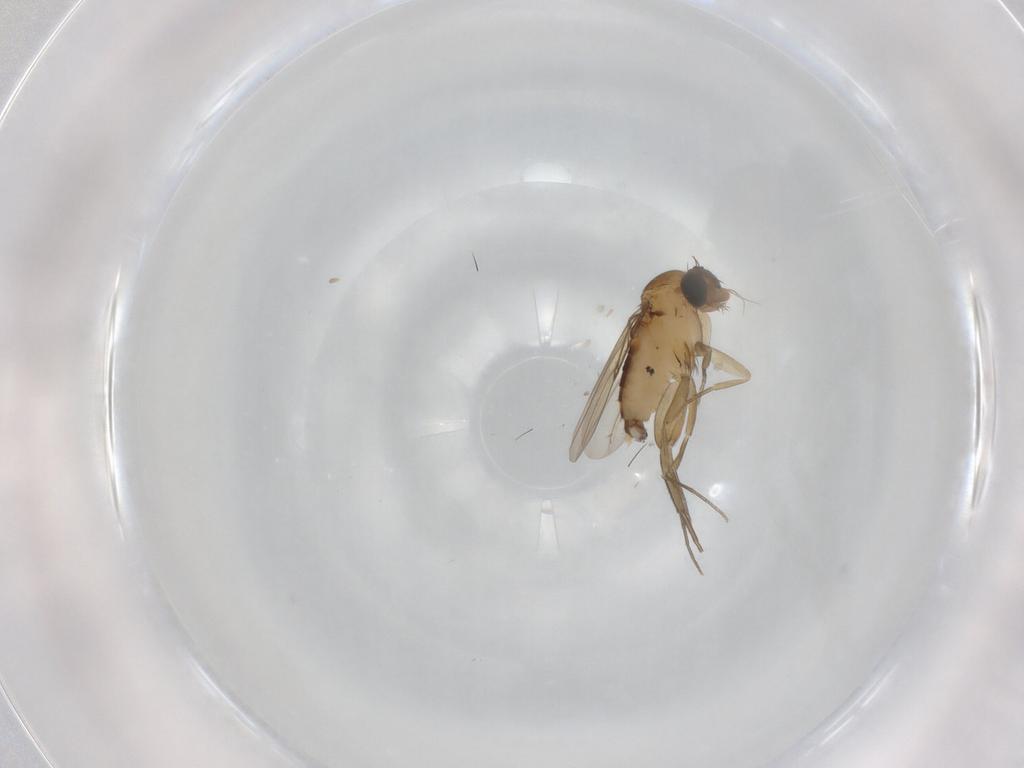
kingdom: Animalia
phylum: Arthropoda
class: Insecta
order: Diptera
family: Phoridae
